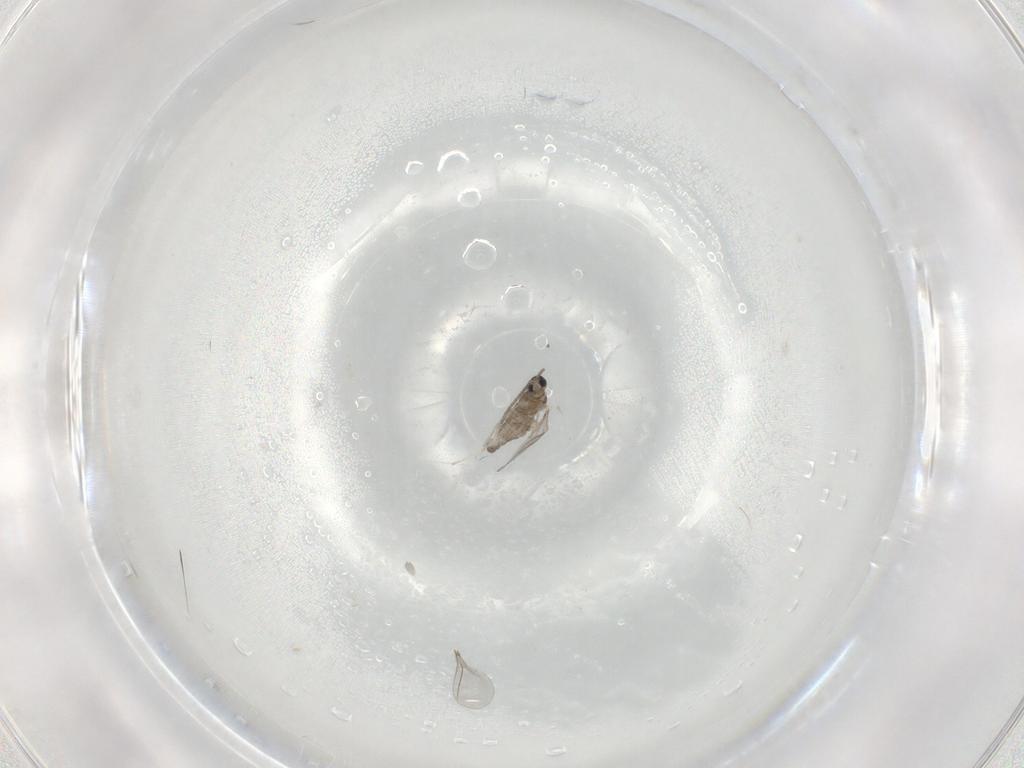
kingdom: Animalia
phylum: Arthropoda
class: Insecta
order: Diptera
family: Cecidomyiidae
